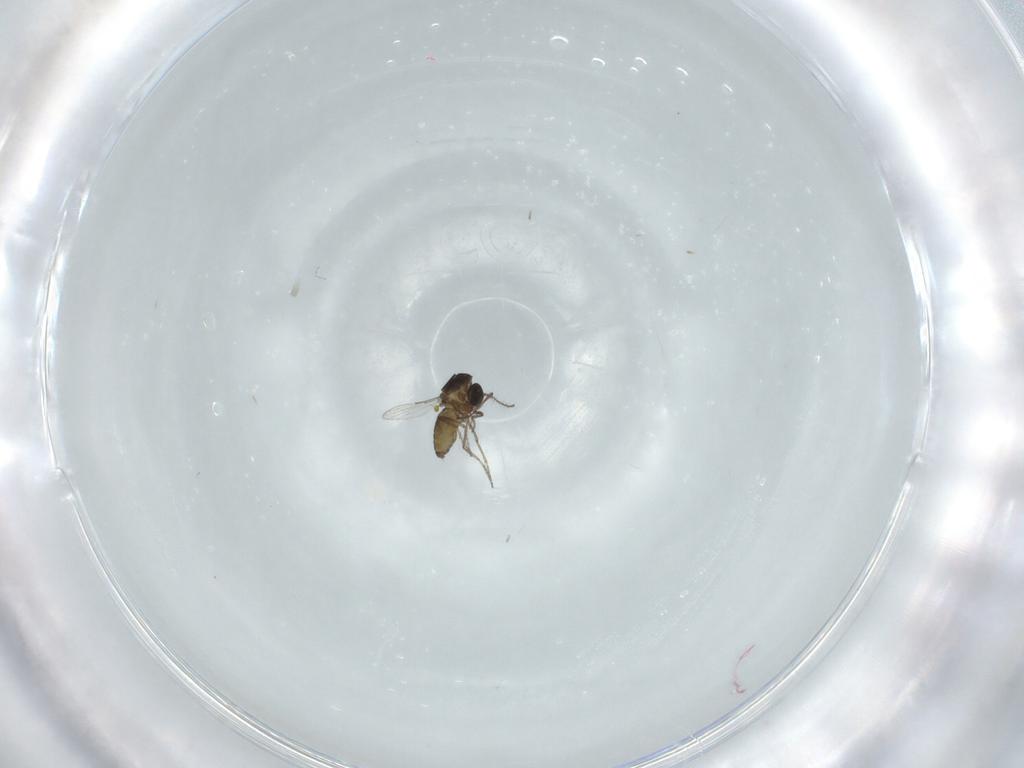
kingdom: Animalia
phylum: Arthropoda
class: Insecta
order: Diptera
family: Ceratopogonidae
